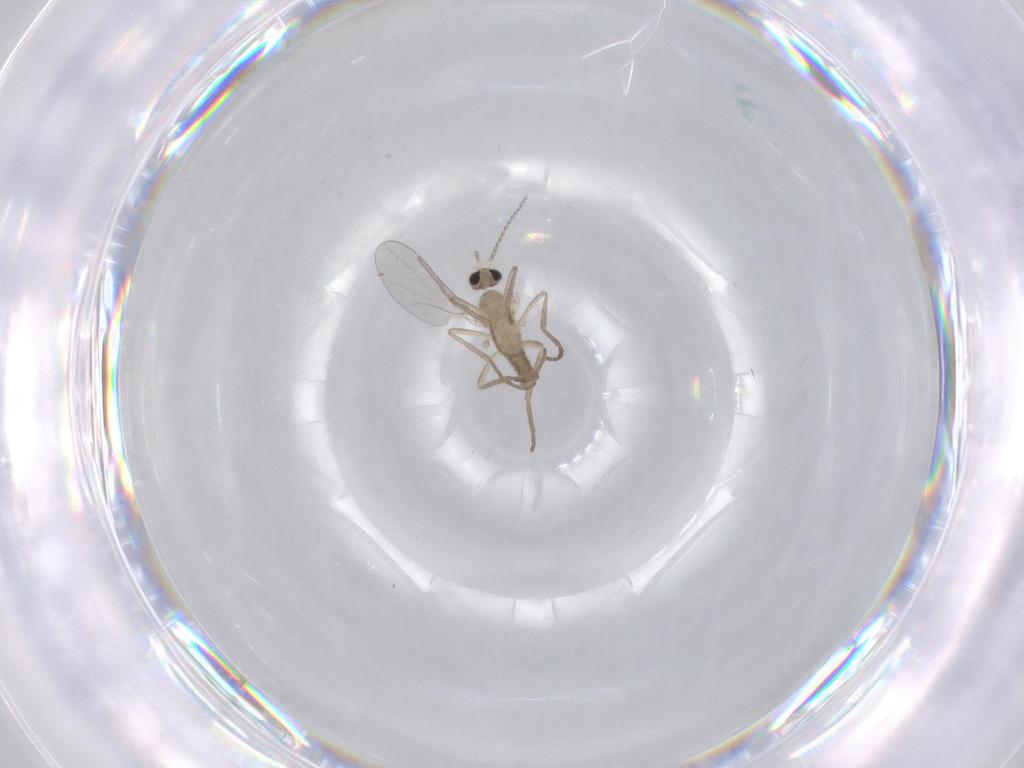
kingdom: Animalia
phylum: Arthropoda
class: Insecta
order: Diptera
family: Cecidomyiidae
